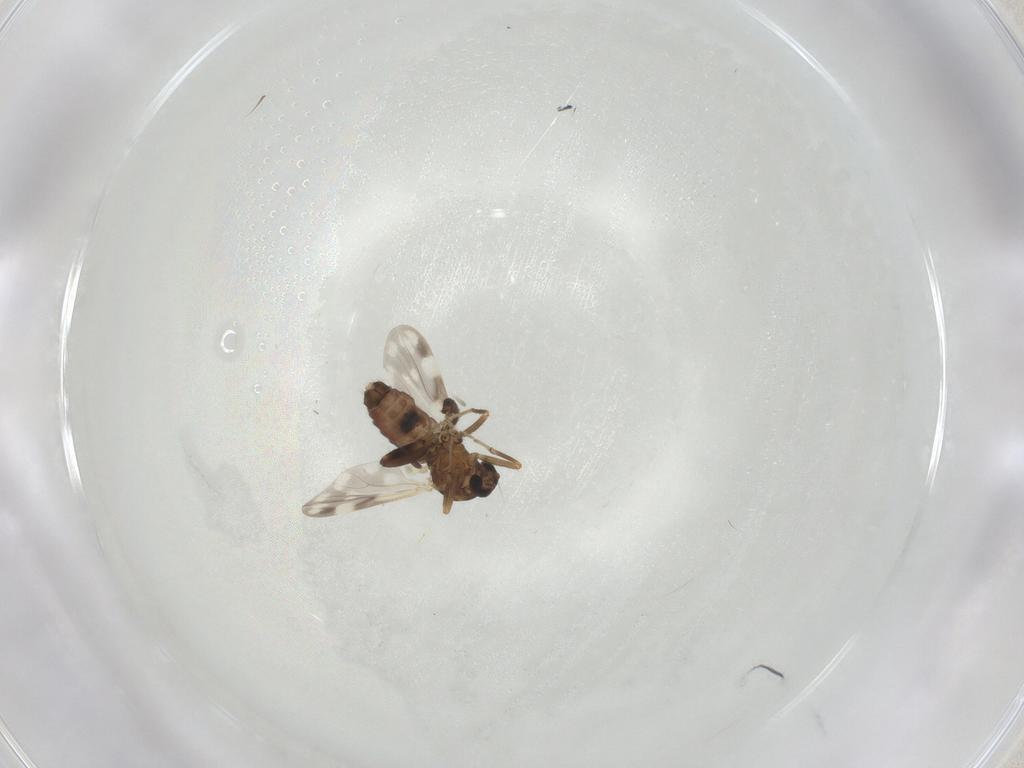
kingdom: Animalia
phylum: Arthropoda
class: Insecta
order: Diptera
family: Ceratopogonidae
